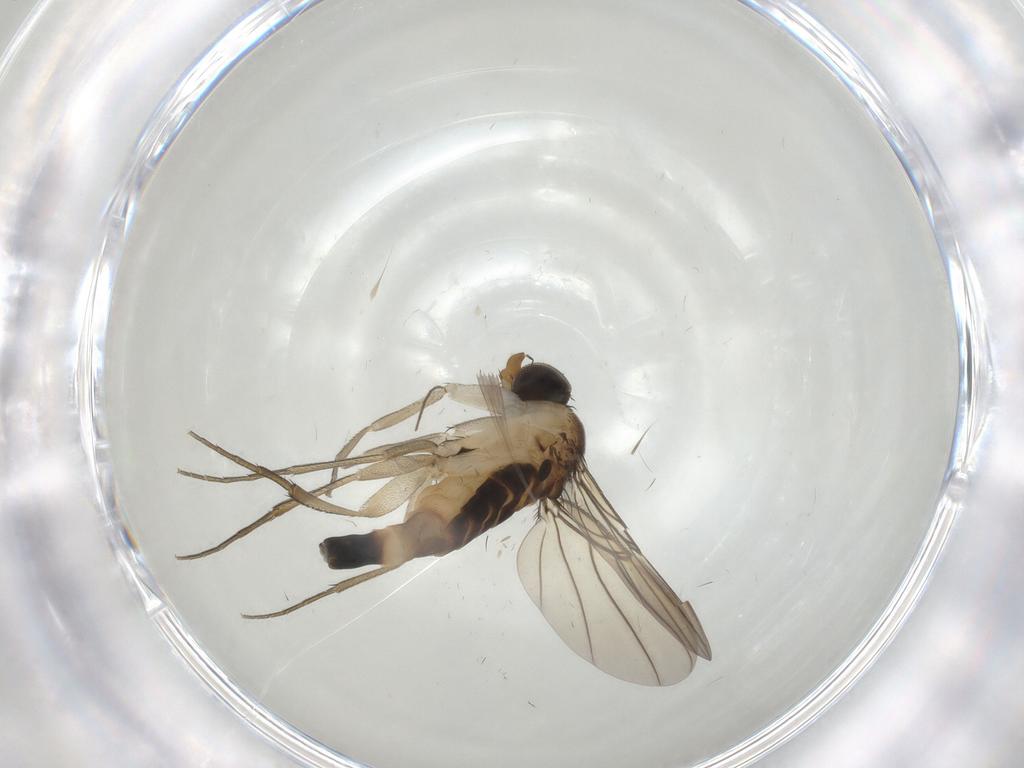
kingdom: Animalia
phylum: Arthropoda
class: Insecta
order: Diptera
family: Phoridae
